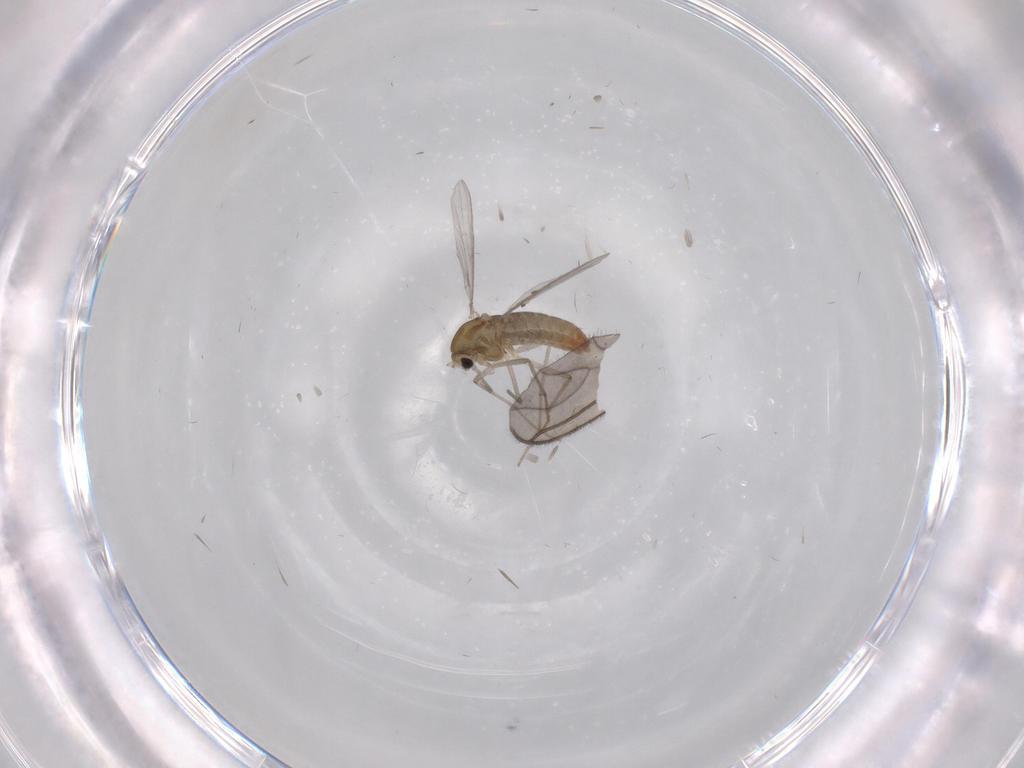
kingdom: Animalia
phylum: Arthropoda
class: Insecta
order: Diptera
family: Chironomidae
